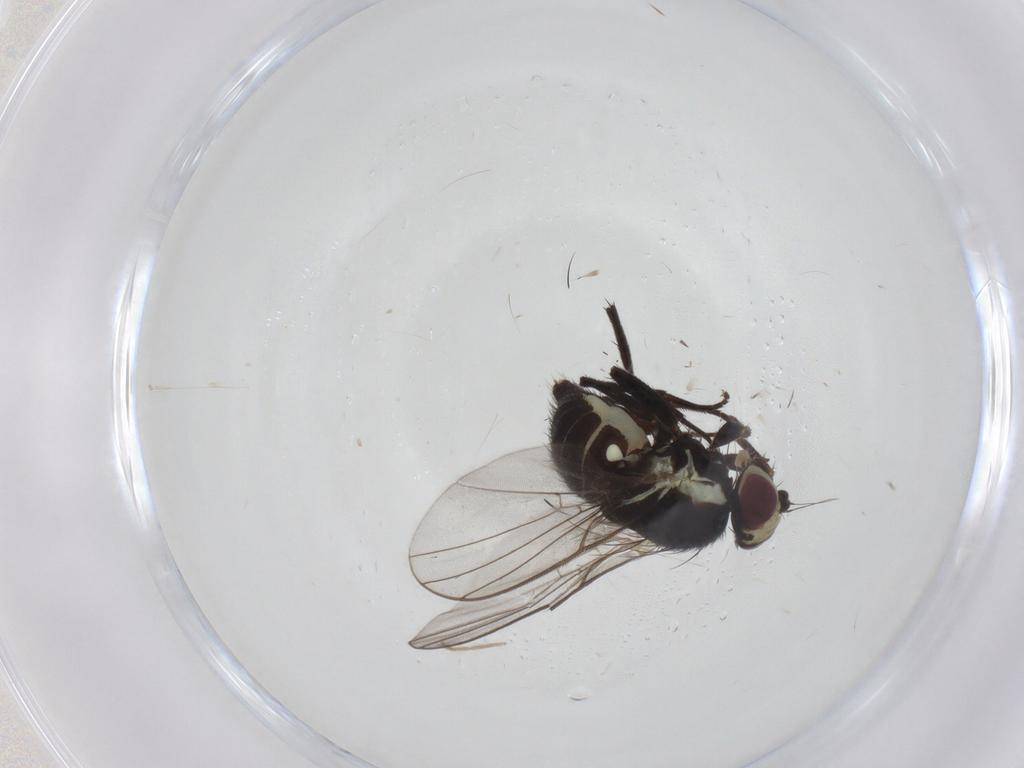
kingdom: Animalia
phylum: Arthropoda
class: Insecta
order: Diptera
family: Agromyzidae
